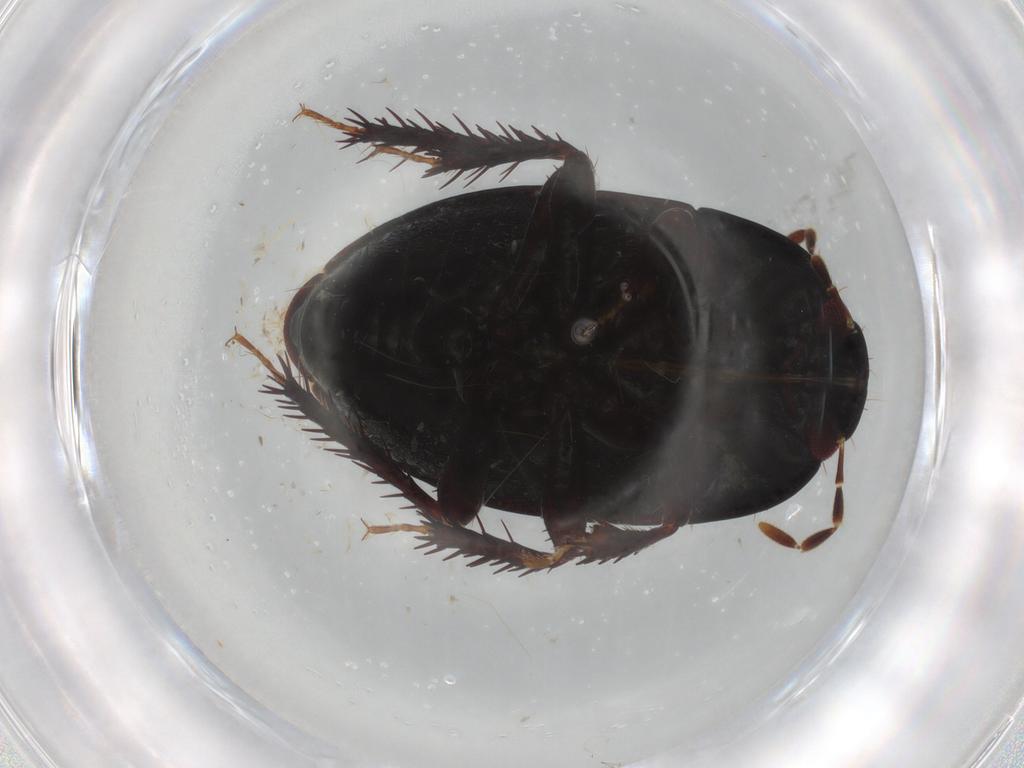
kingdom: Animalia
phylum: Arthropoda
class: Insecta
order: Hemiptera
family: Cydnidae
